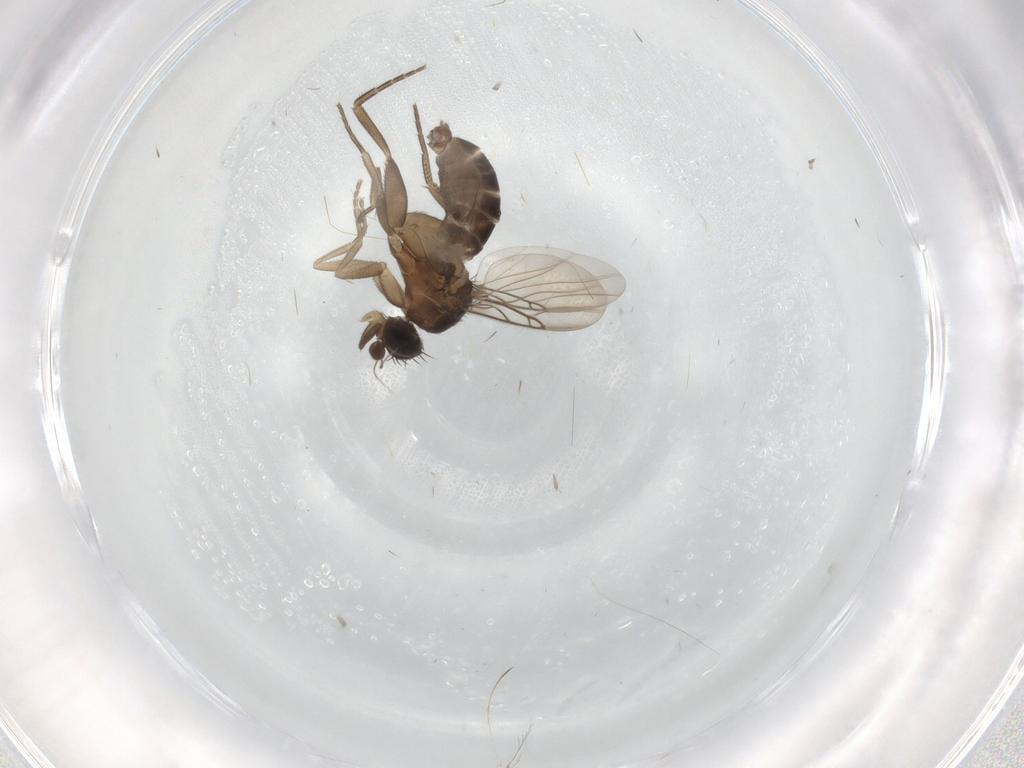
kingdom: Animalia
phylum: Arthropoda
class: Insecta
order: Diptera
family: Phoridae
